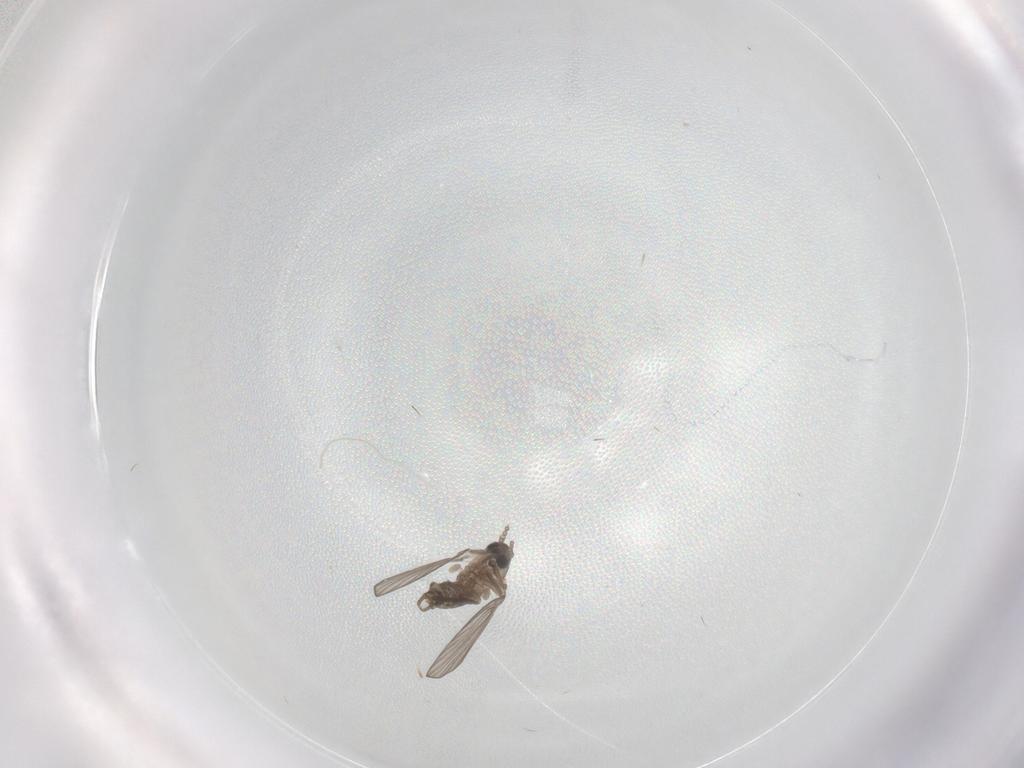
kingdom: Animalia
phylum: Arthropoda
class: Insecta
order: Diptera
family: Psychodidae
